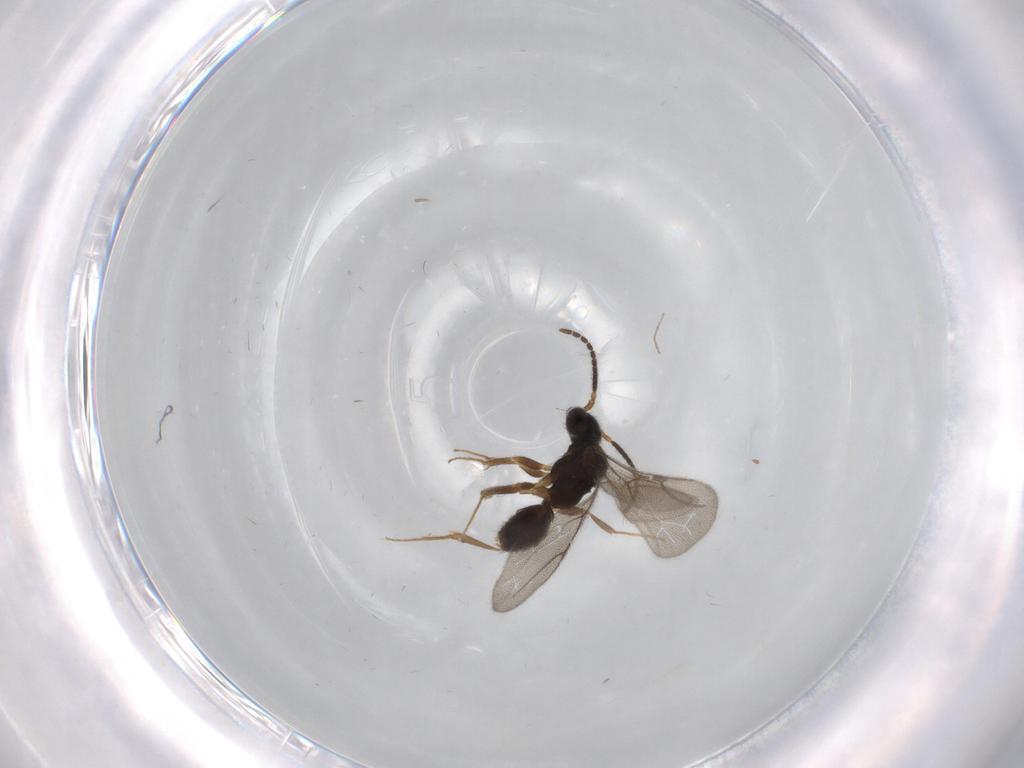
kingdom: Animalia
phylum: Arthropoda
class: Insecta
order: Hymenoptera
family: Bethylidae
